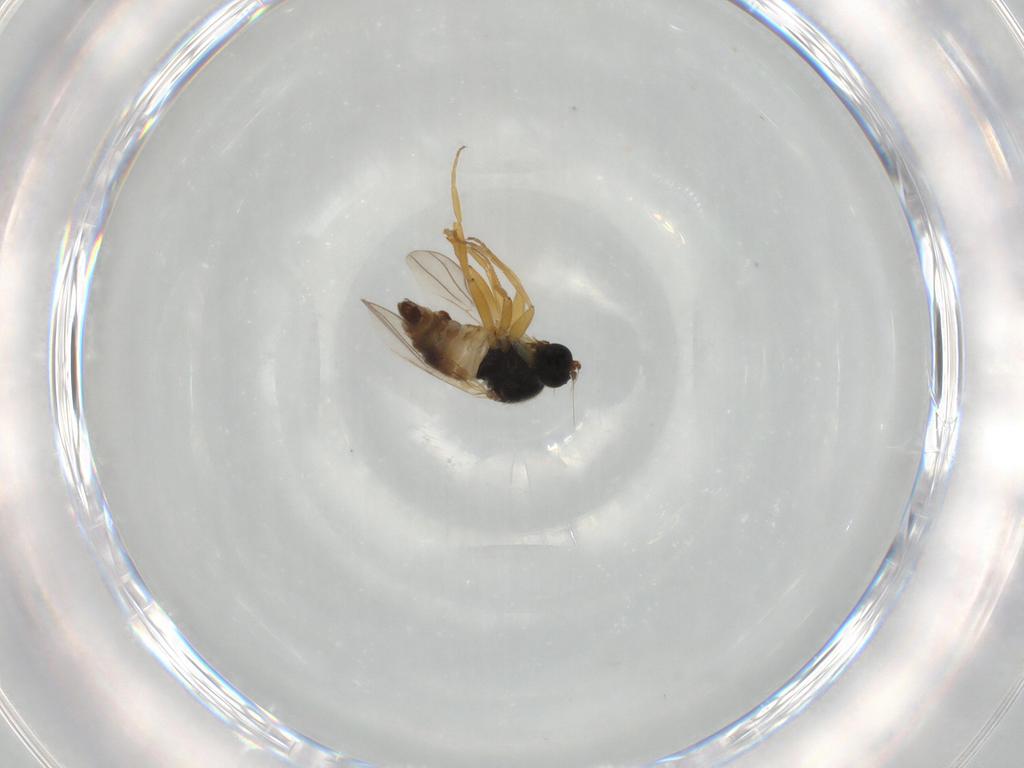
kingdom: Animalia
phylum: Arthropoda
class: Insecta
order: Diptera
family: Hybotidae
